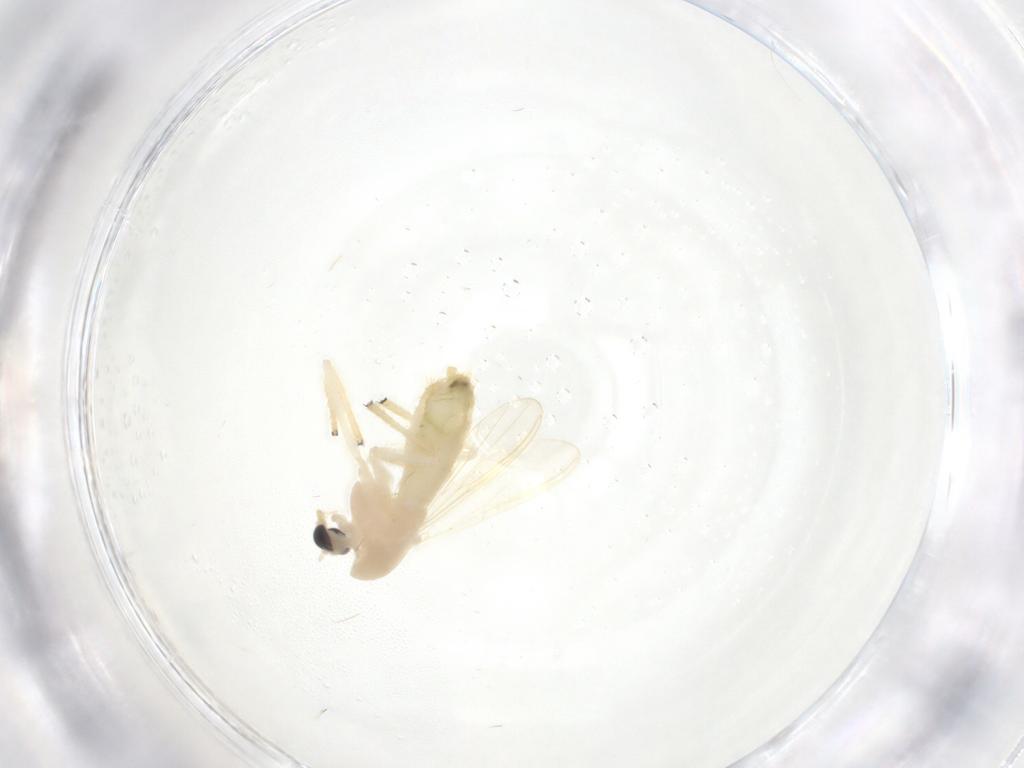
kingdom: Animalia
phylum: Arthropoda
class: Insecta
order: Diptera
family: Chironomidae
